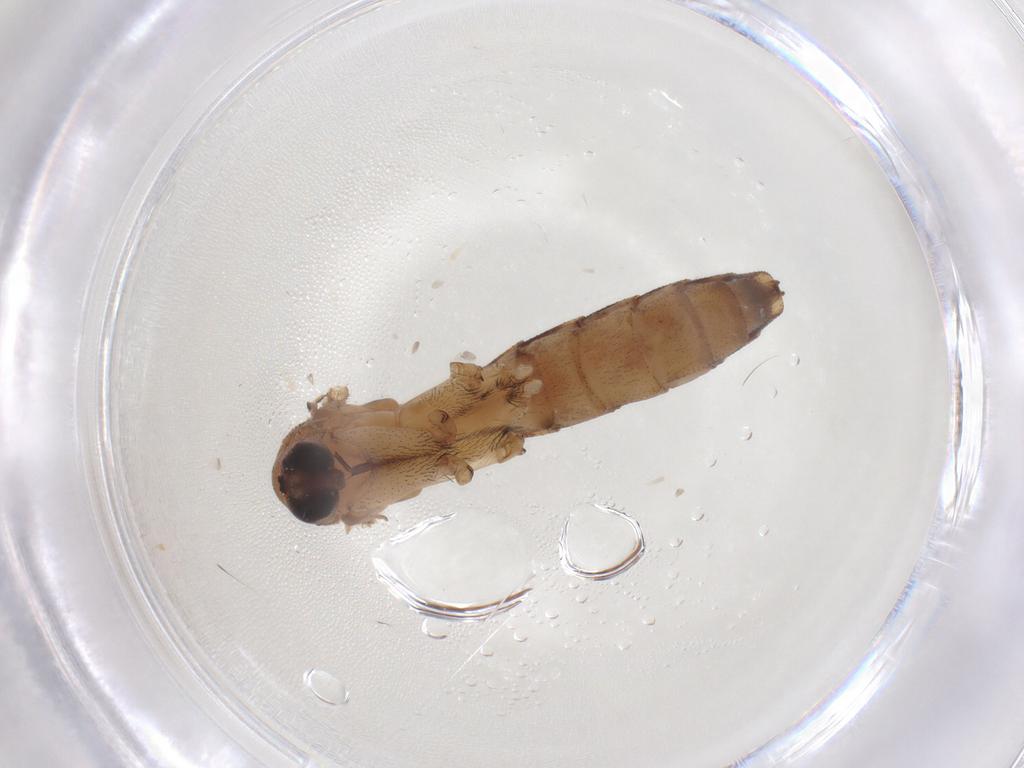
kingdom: Animalia
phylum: Arthropoda
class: Insecta
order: Diptera
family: Keroplatidae
